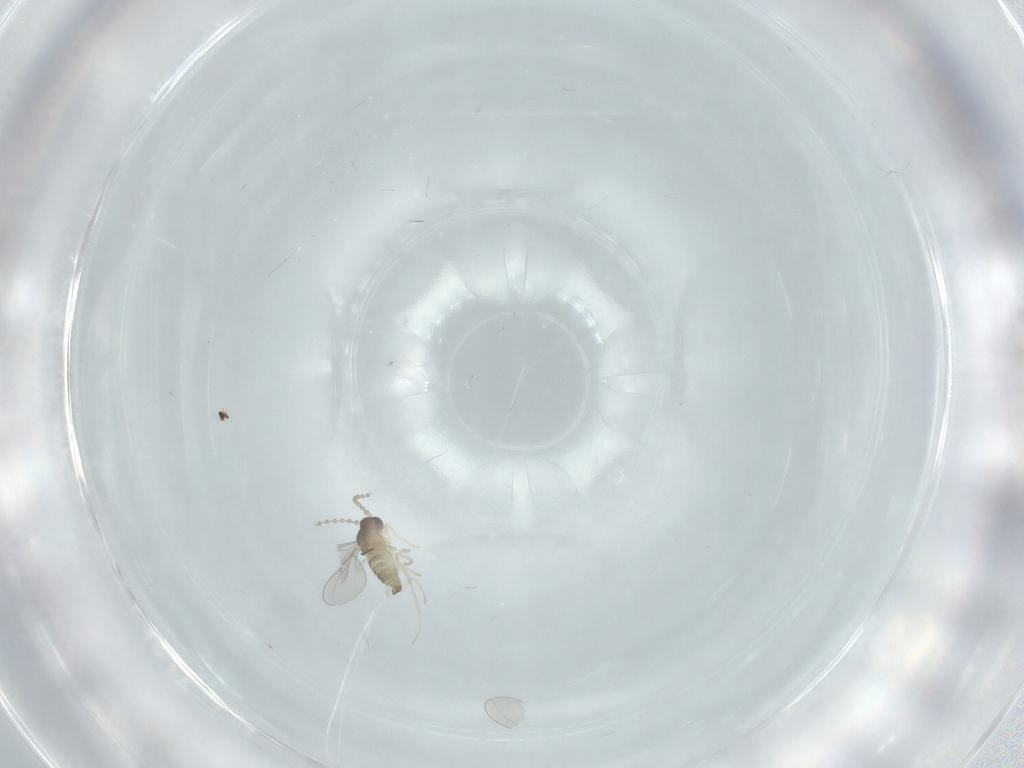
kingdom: Animalia
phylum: Arthropoda
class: Insecta
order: Diptera
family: Cecidomyiidae
